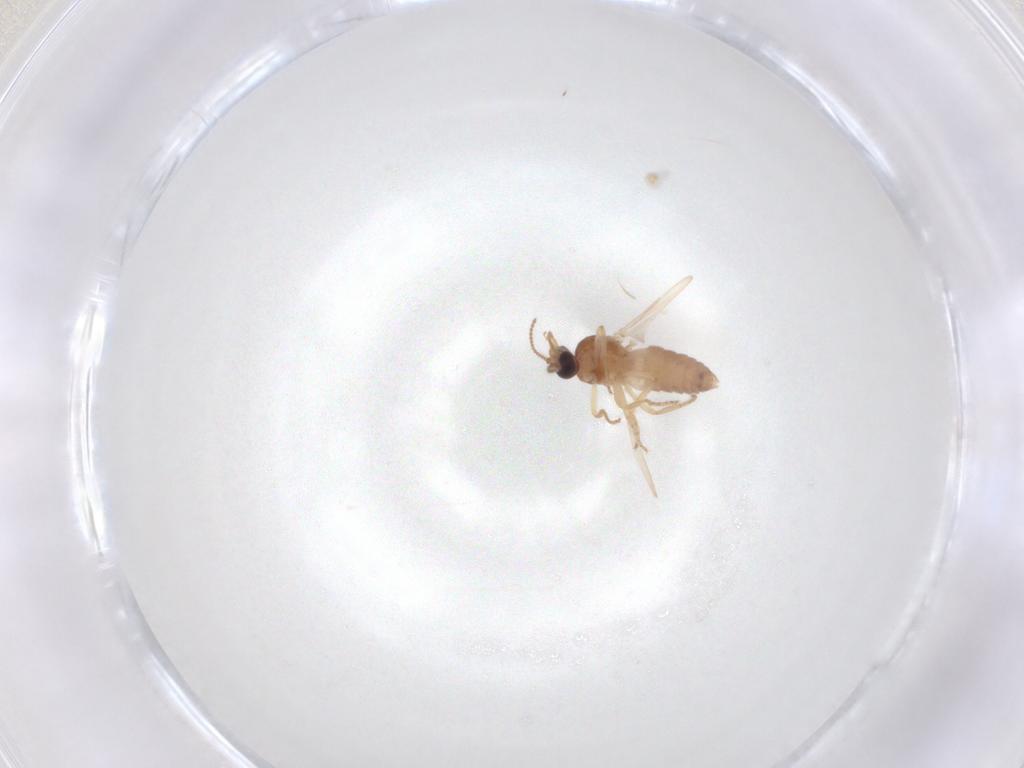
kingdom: Animalia
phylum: Arthropoda
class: Insecta
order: Diptera
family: Ceratopogonidae
